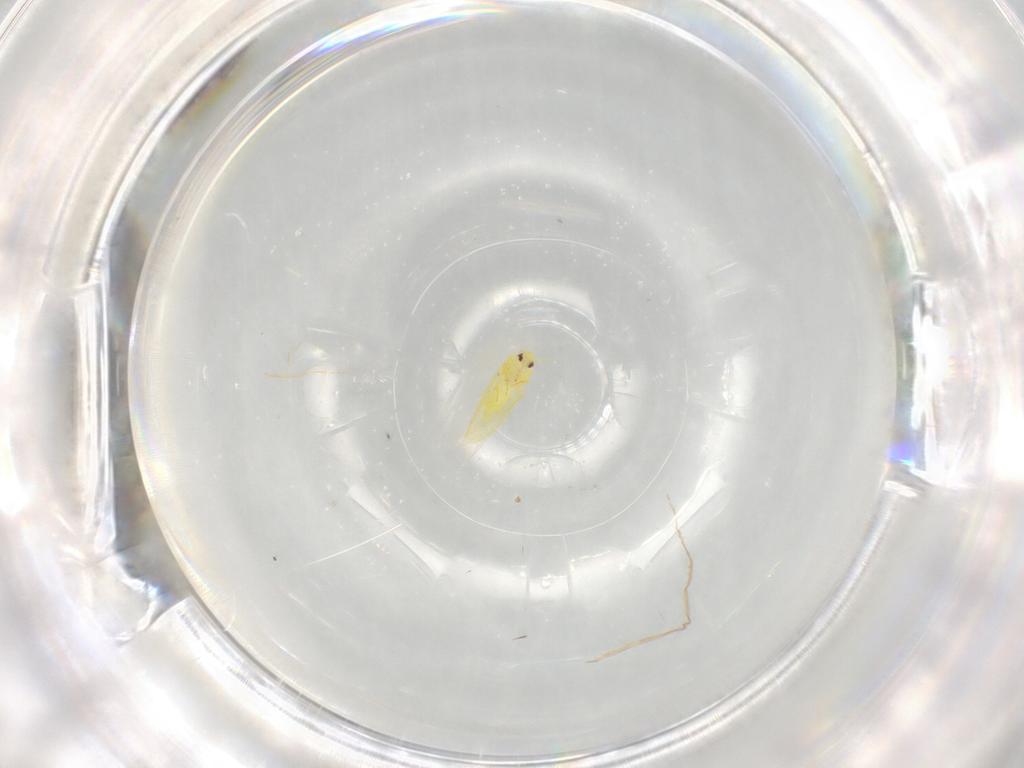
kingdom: Animalia
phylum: Arthropoda
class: Insecta
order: Hemiptera
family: Aleyrodidae
